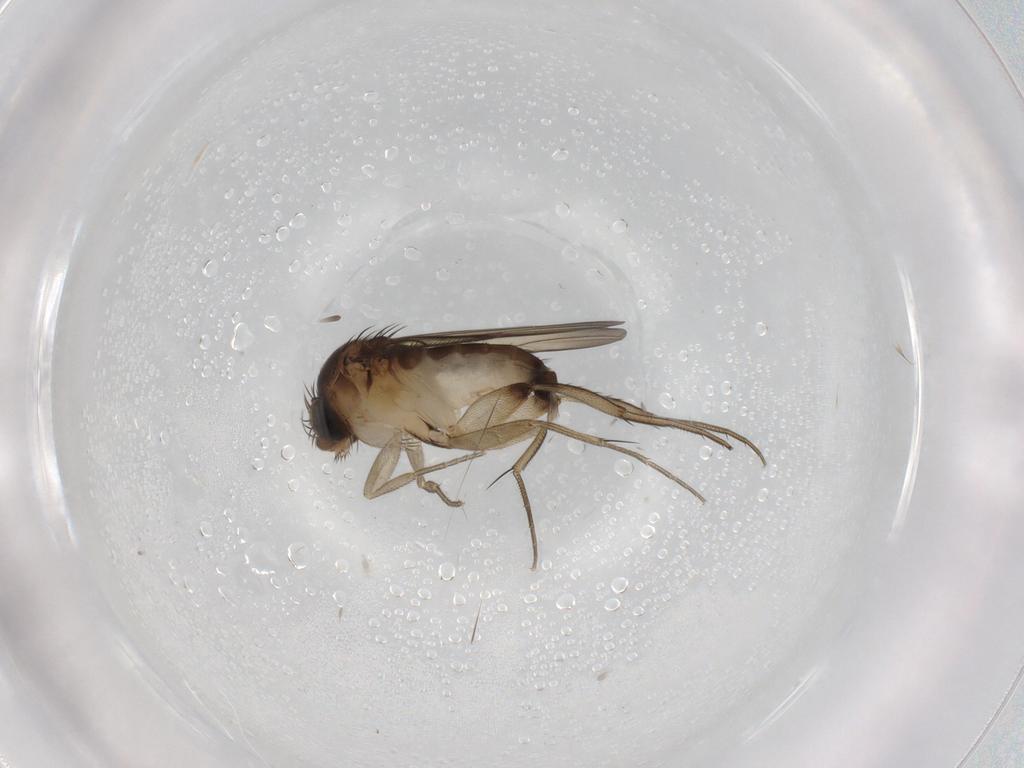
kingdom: Animalia
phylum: Arthropoda
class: Insecta
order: Diptera
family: Phoridae
